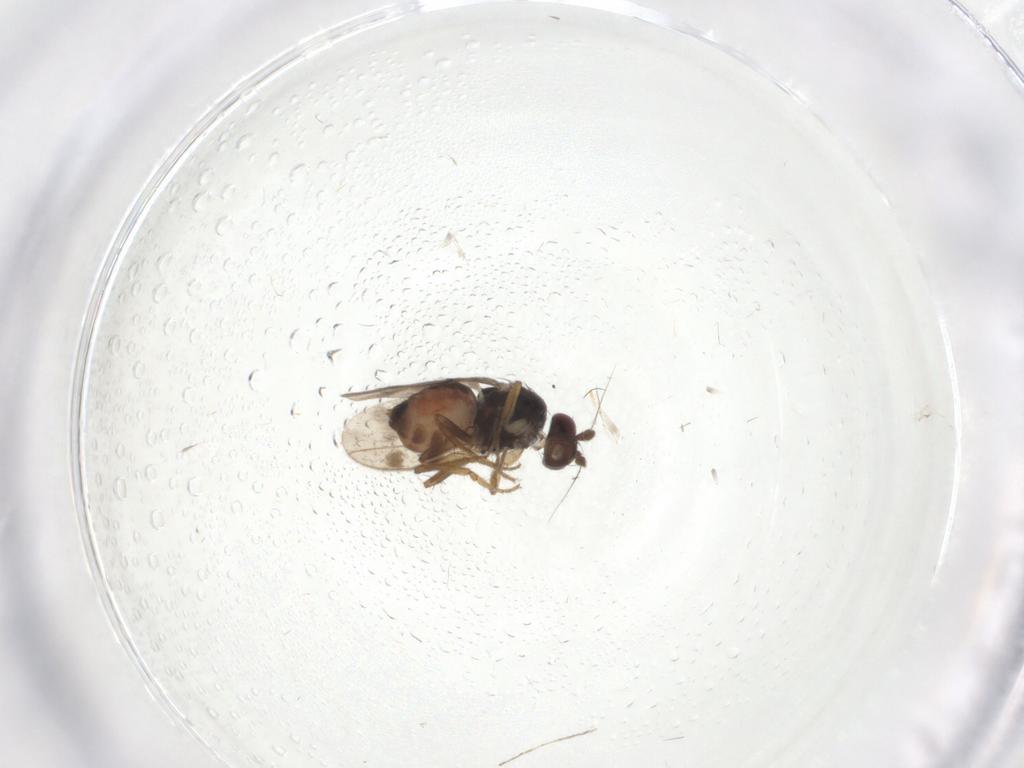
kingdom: Animalia
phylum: Arthropoda
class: Insecta
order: Diptera
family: Sphaeroceridae
